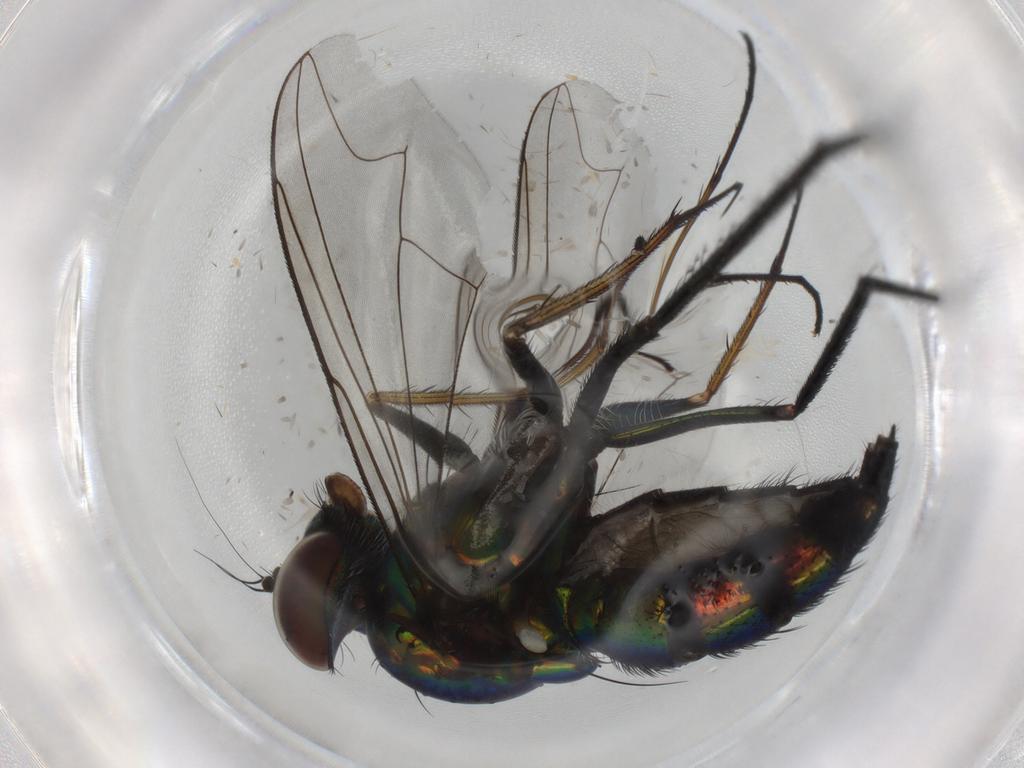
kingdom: Animalia
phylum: Arthropoda
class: Insecta
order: Diptera
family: Dolichopodidae
